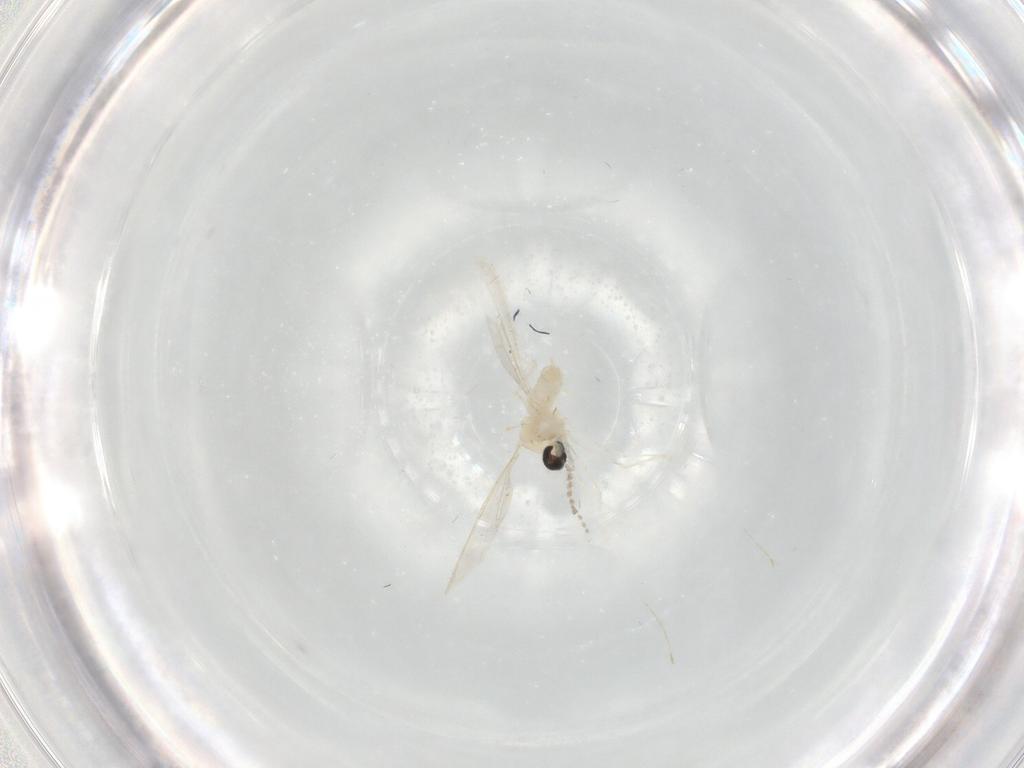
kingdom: Animalia
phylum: Arthropoda
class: Insecta
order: Diptera
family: Cecidomyiidae
